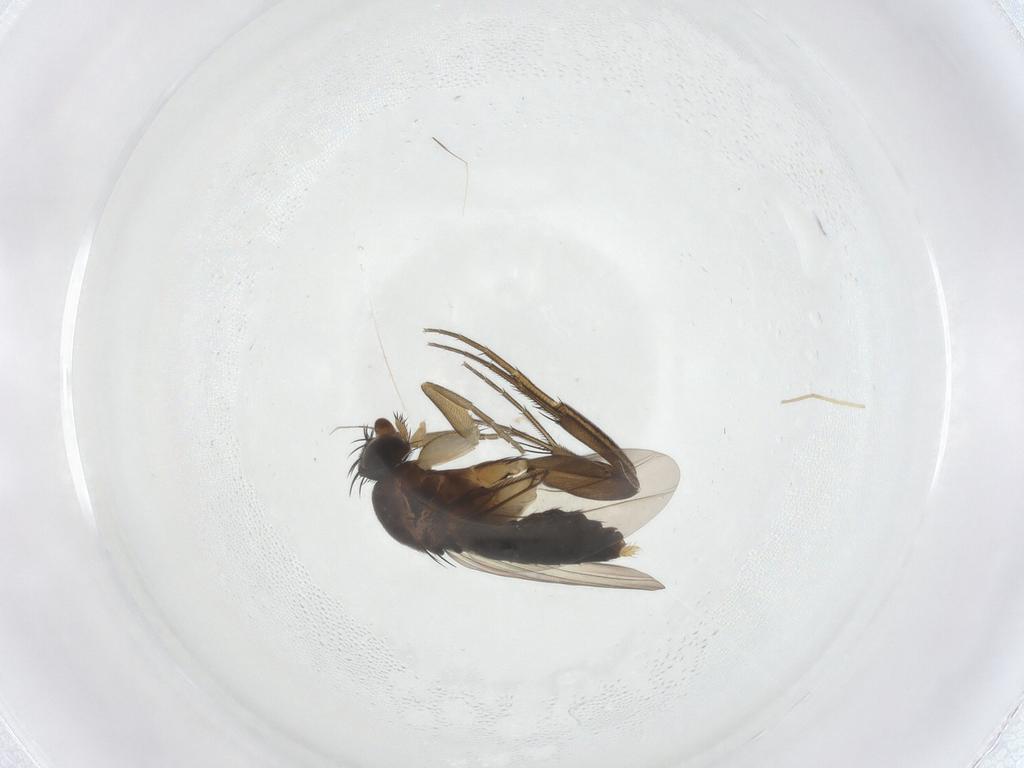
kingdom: Animalia
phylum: Arthropoda
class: Insecta
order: Diptera
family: Phoridae
